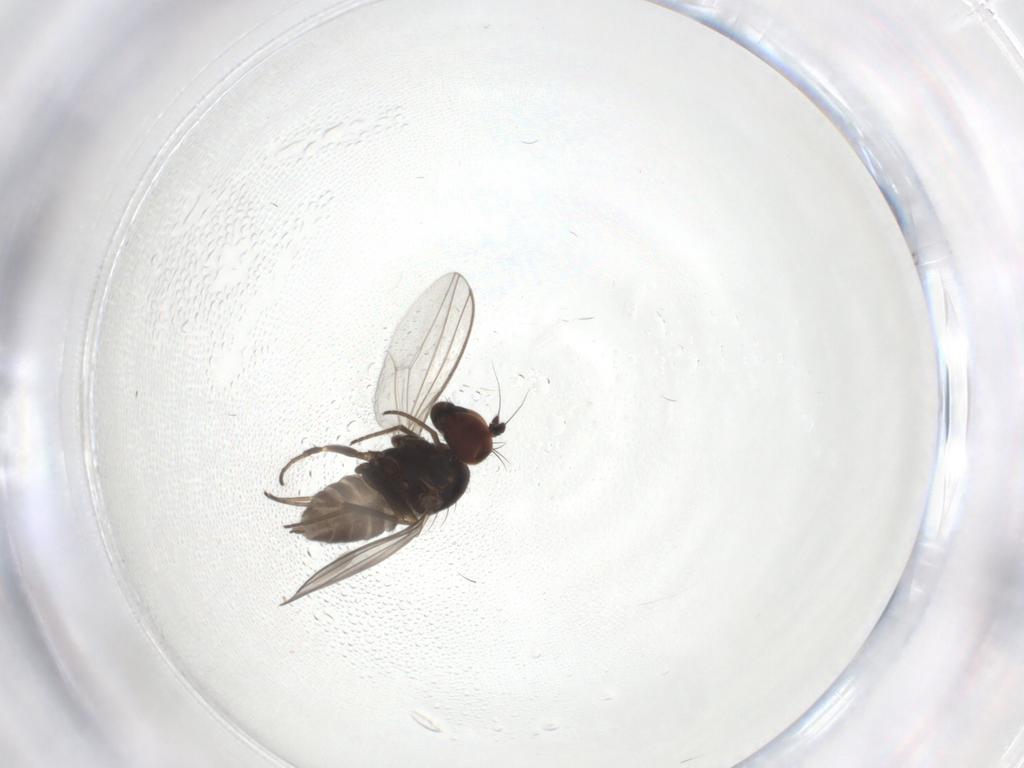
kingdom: Animalia
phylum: Arthropoda
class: Insecta
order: Diptera
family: Dolichopodidae
